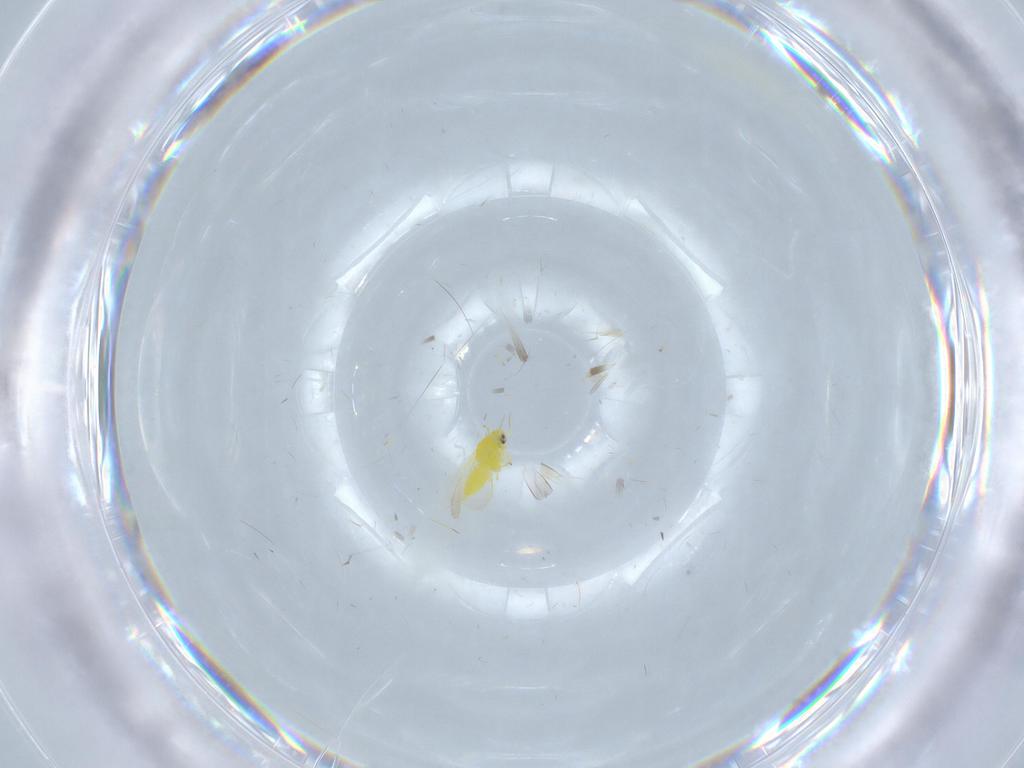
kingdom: Animalia
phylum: Arthropoda
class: Insecta
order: Hemiptera
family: Aleyrodidae
